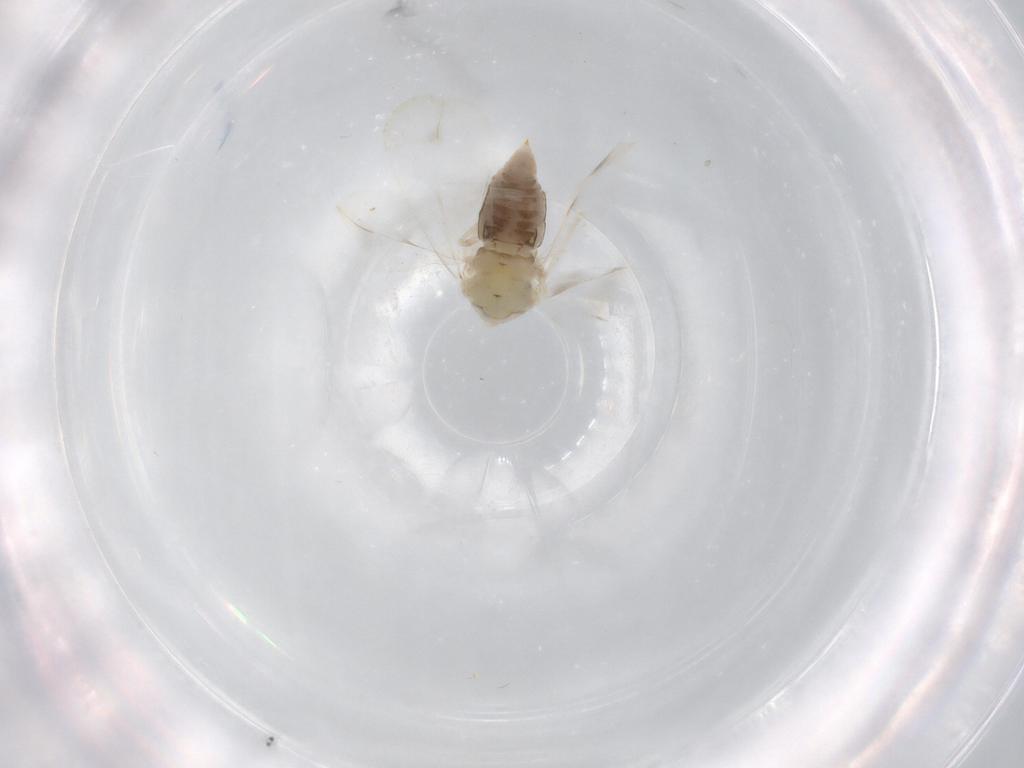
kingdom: Animalia
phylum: Arthropoda
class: Insecta
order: Hemiptera
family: Aleyrodidae
